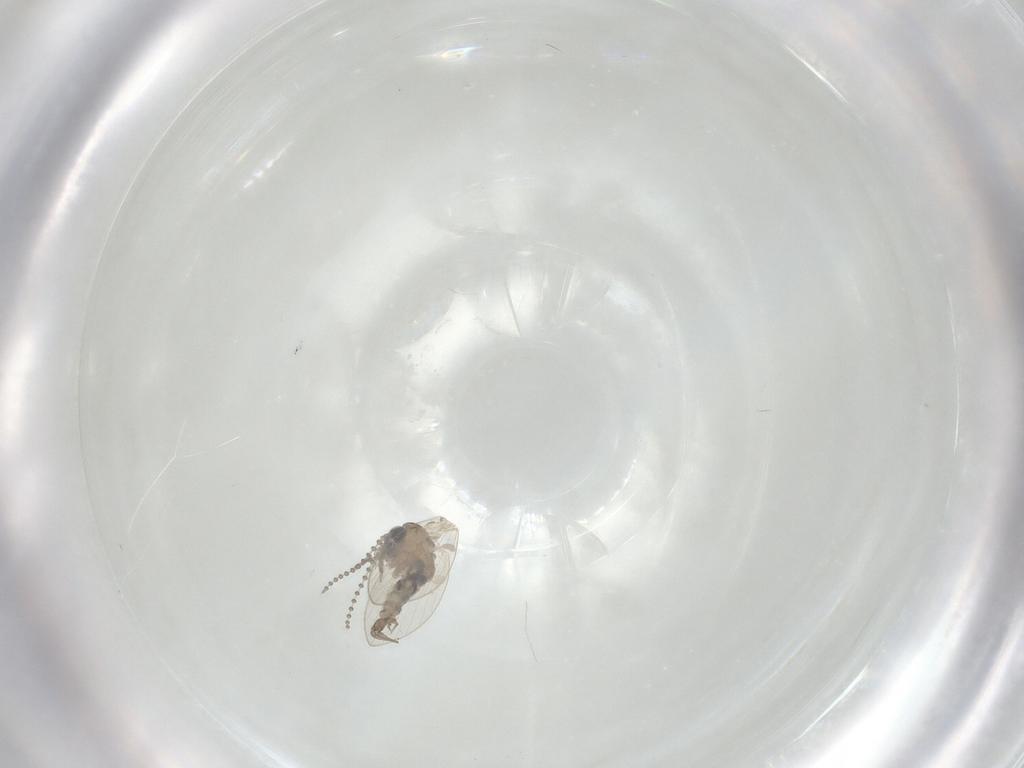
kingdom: Animalia
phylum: Arthropoda
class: Insecta
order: Diptera
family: Psychodidae
